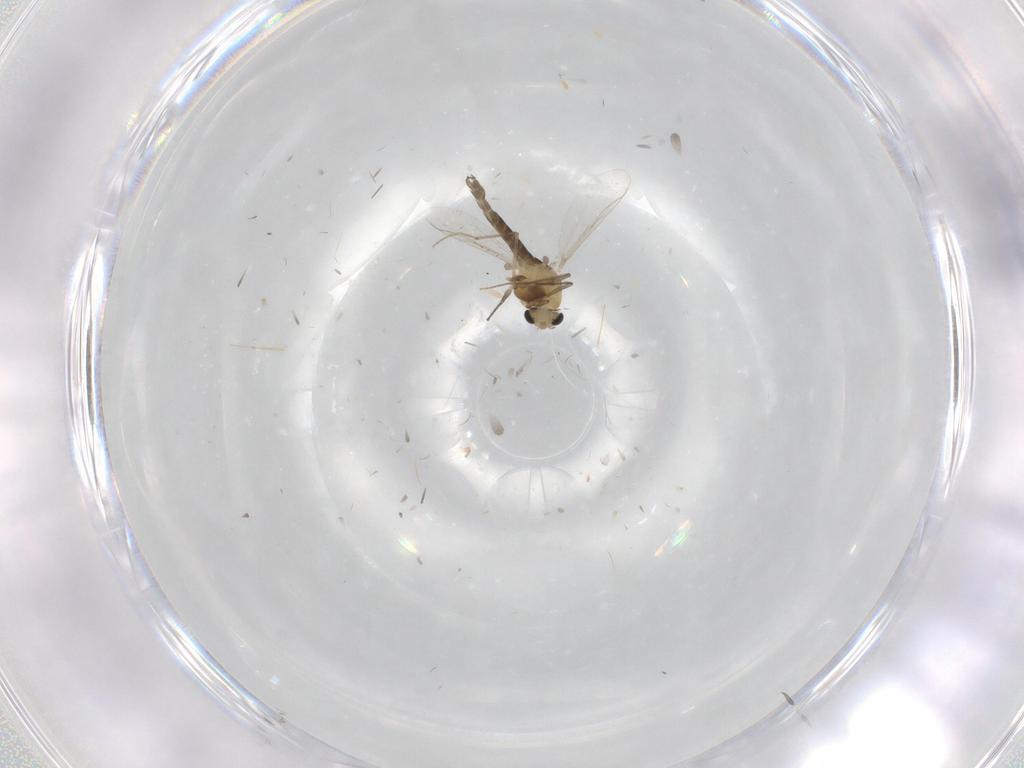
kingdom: Animalia
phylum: Arthropoda
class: Insecta
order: Diptera
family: Chironomidae
